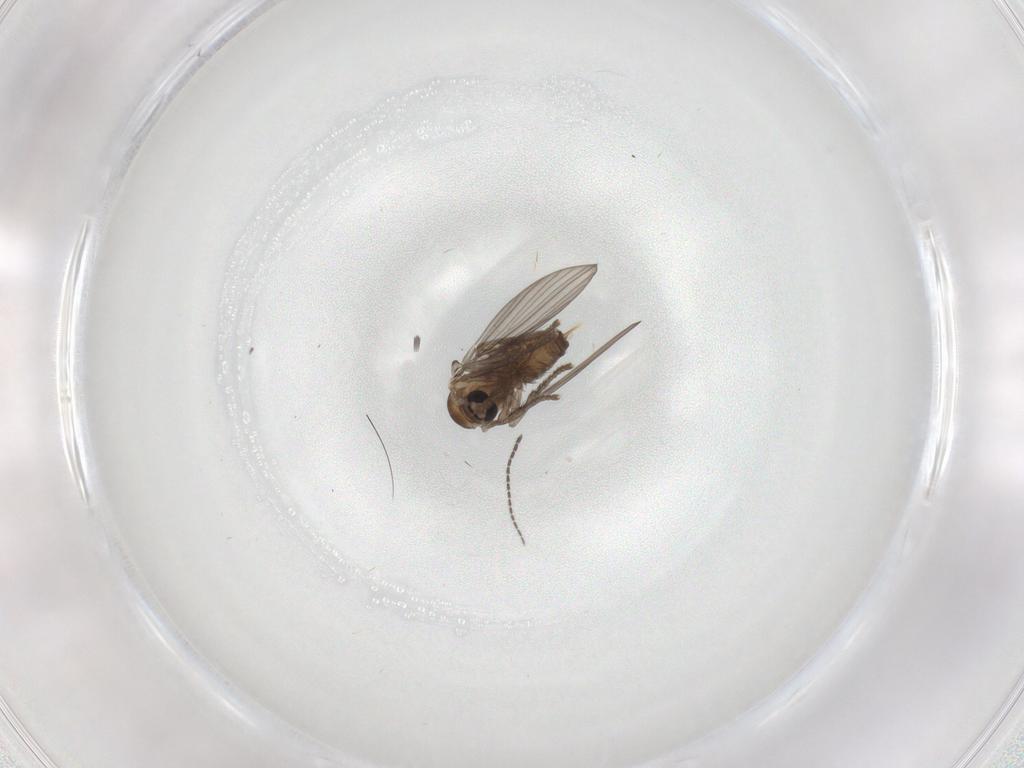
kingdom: Animalia
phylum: Arthropoda
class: Insecta
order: Diptera
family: Psychodidae
